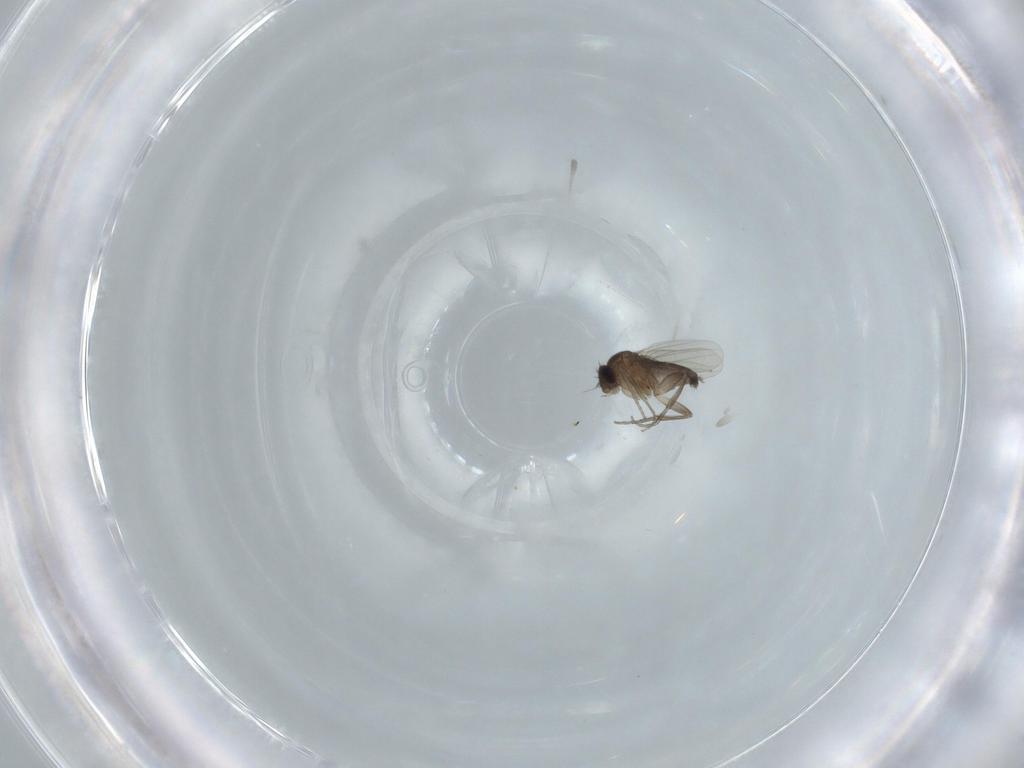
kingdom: Animalia
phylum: Arthropoda
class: Insecta
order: Diptera
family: Phoridae
